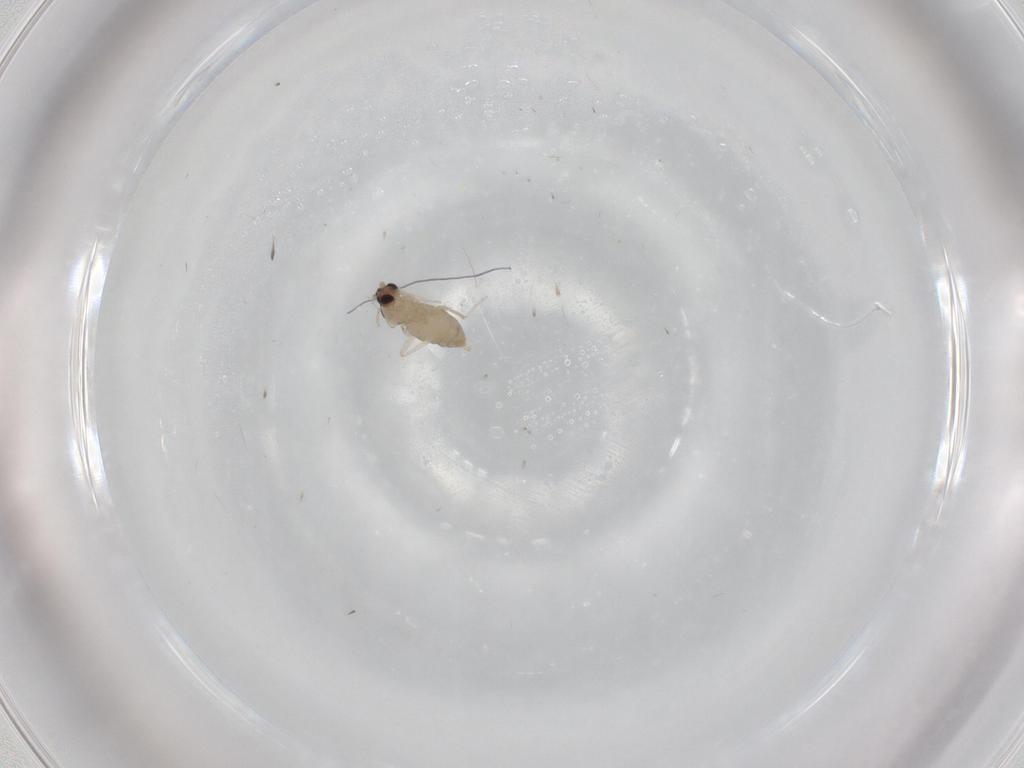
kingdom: Animalia
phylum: Arthropoda
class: Insecta
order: Diptera
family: Cecidomyiidae
